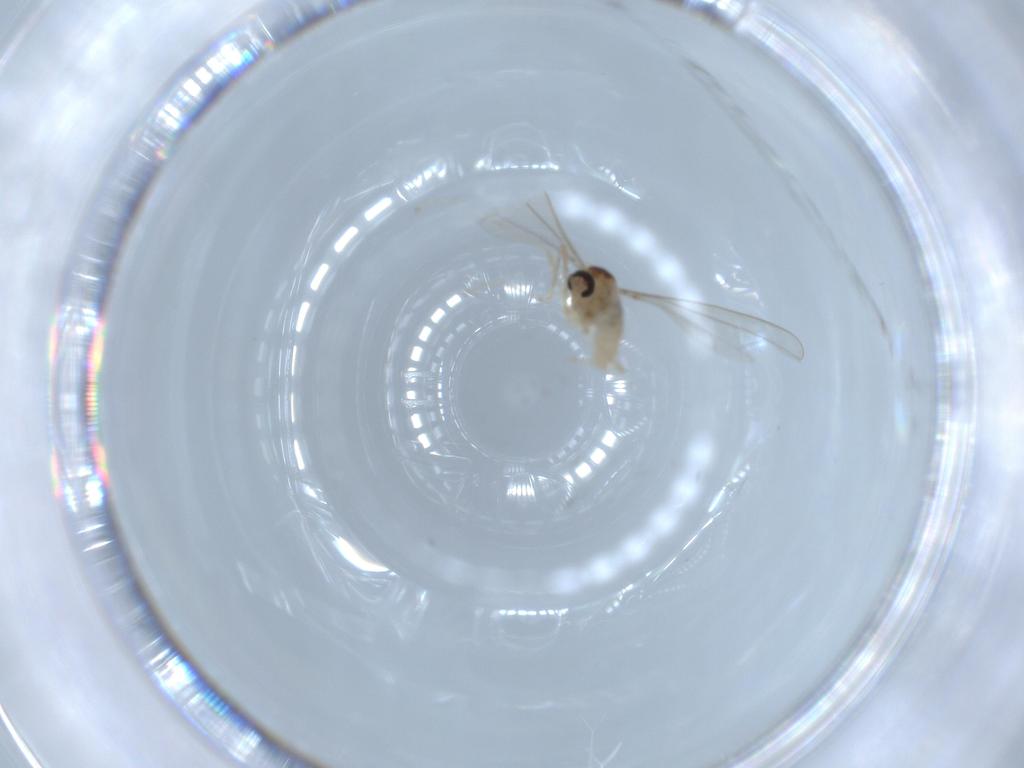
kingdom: Animalia
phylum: Arthropoda
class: Insecta
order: Diptera
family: Cecidomyiidae
